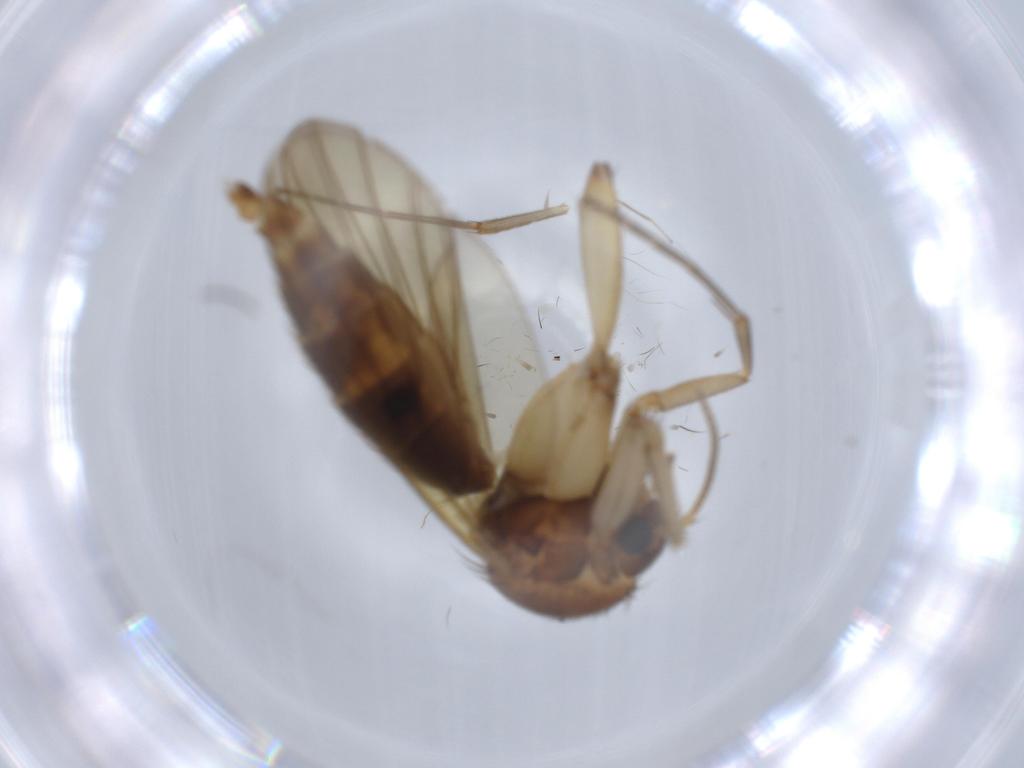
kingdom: Animalia
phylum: Arthropoda
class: Insecta
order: Diptera
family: Mycetophilidae
